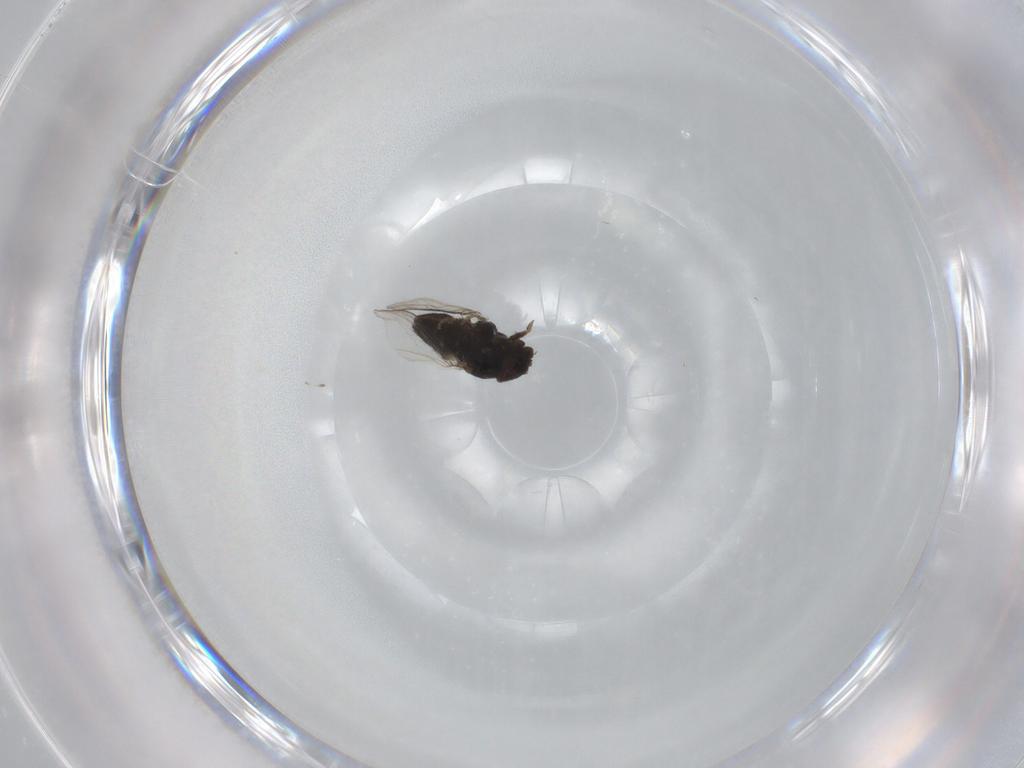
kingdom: Animalia
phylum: Arthropoda
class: Insecta
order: Diptera
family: Milichiidae
